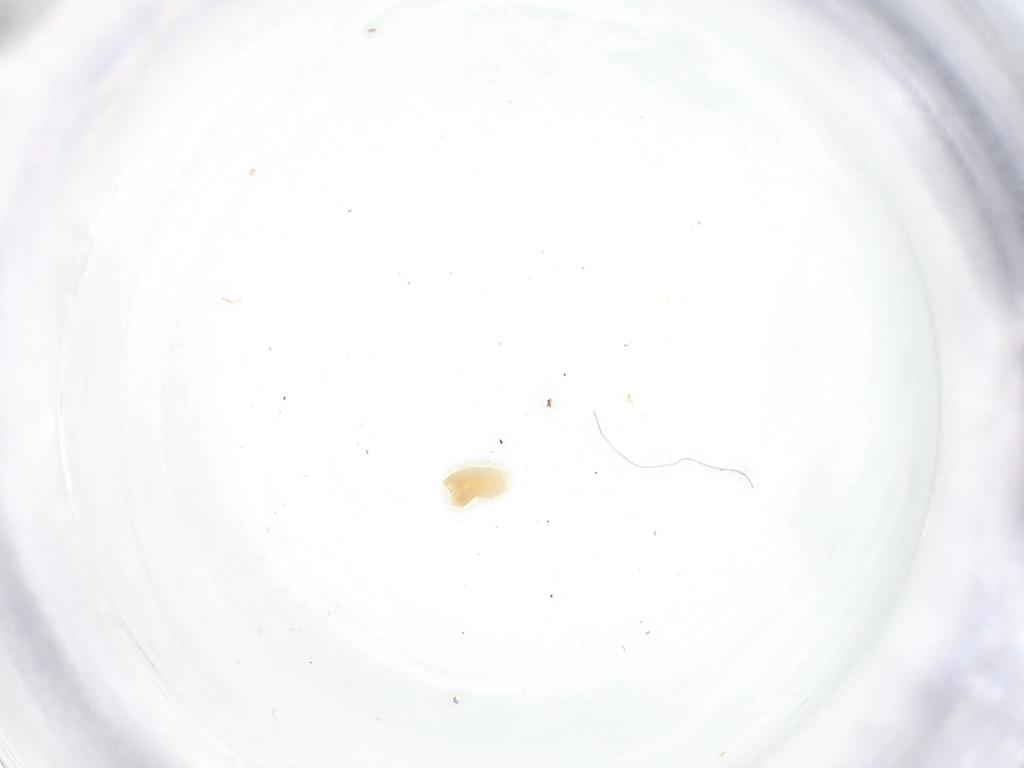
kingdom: Animalia
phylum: Arthropoda
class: Insecta
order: Diptera
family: Fergusoninidae
